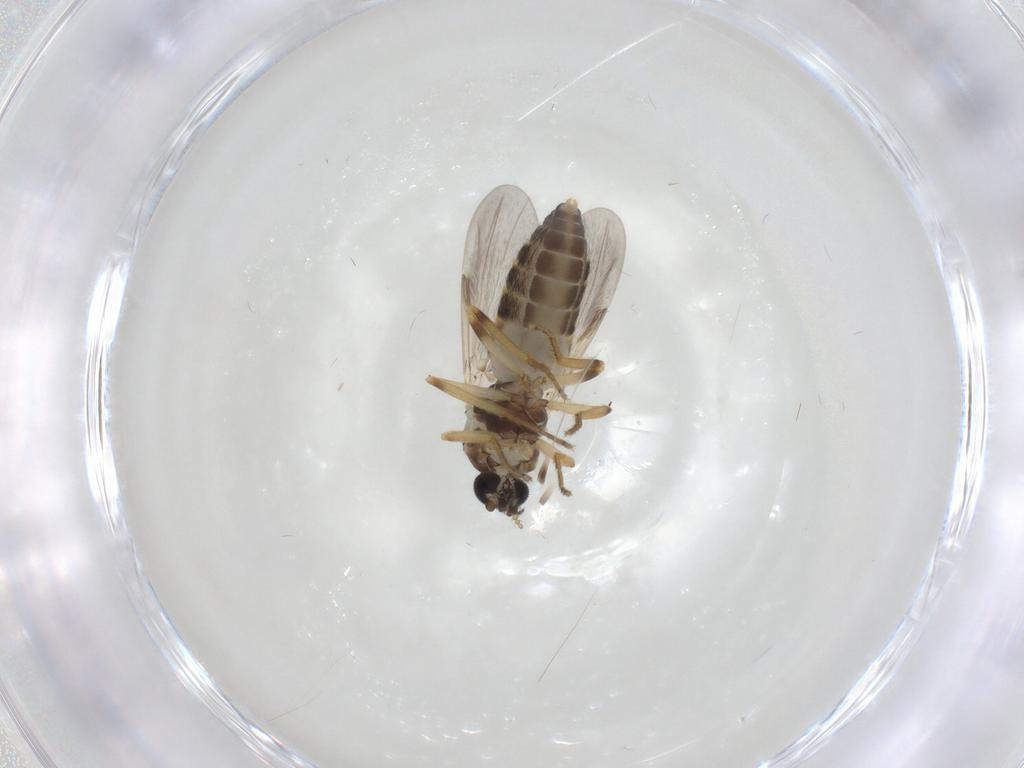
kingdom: Animalia
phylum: Arthropoda
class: Insecta
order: Diptera
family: Ceratopogonidae
